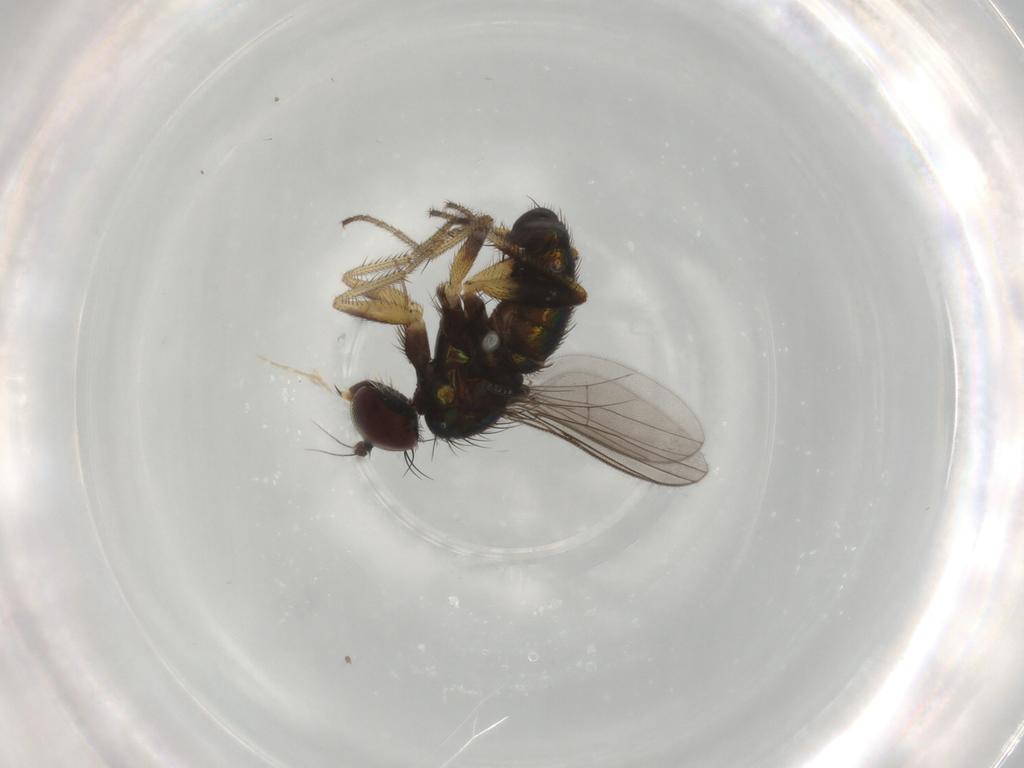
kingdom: Animalia
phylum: Arthropoda
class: Insecta
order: Diptera
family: Dolichopodidae
